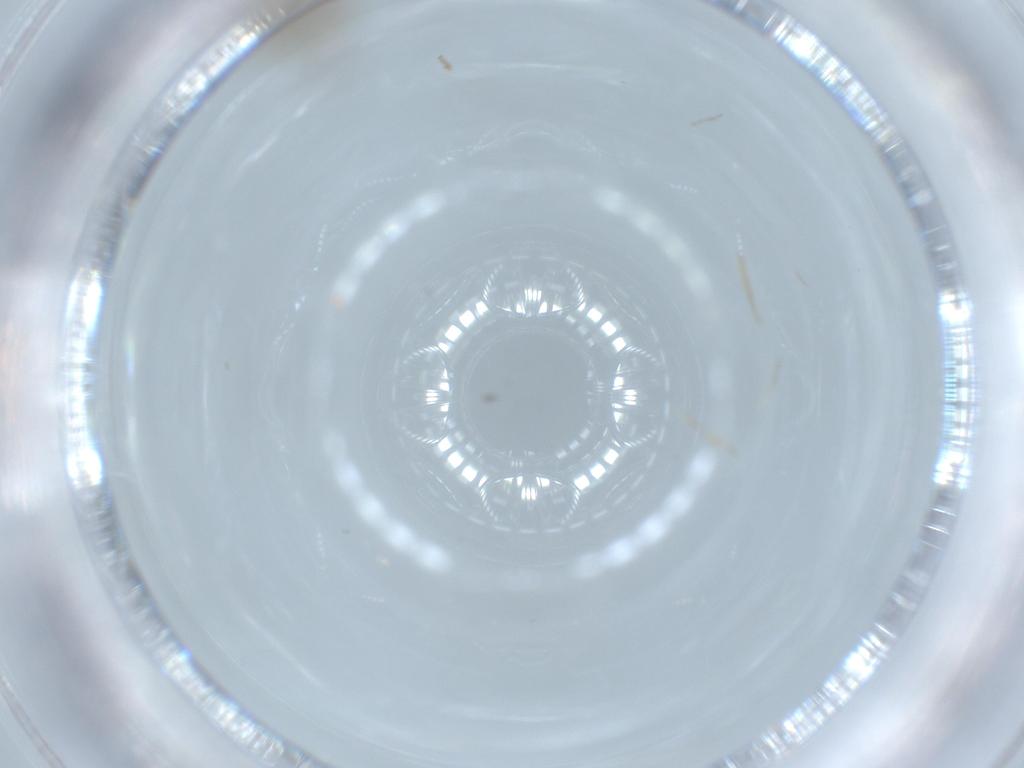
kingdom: Animalia
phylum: Arthropoda
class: Insecta
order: Coleoptera
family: Chrysomelidae
